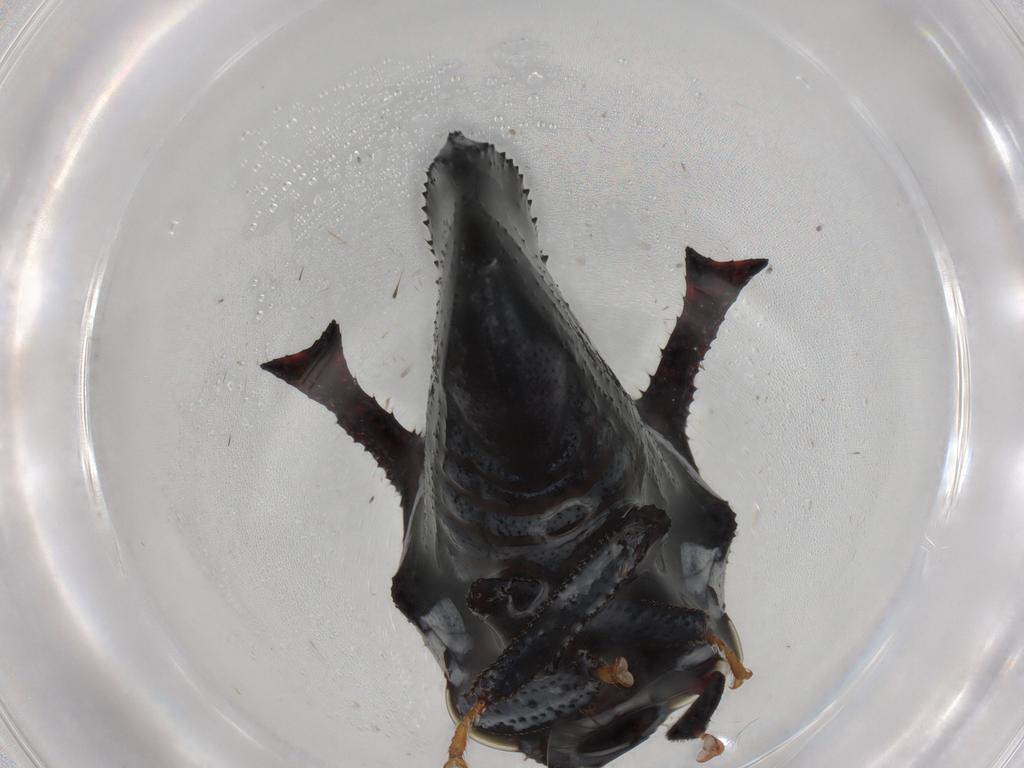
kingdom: Animalia
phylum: Arthropoda
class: Insecta
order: Hemiptera
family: Membracidae
